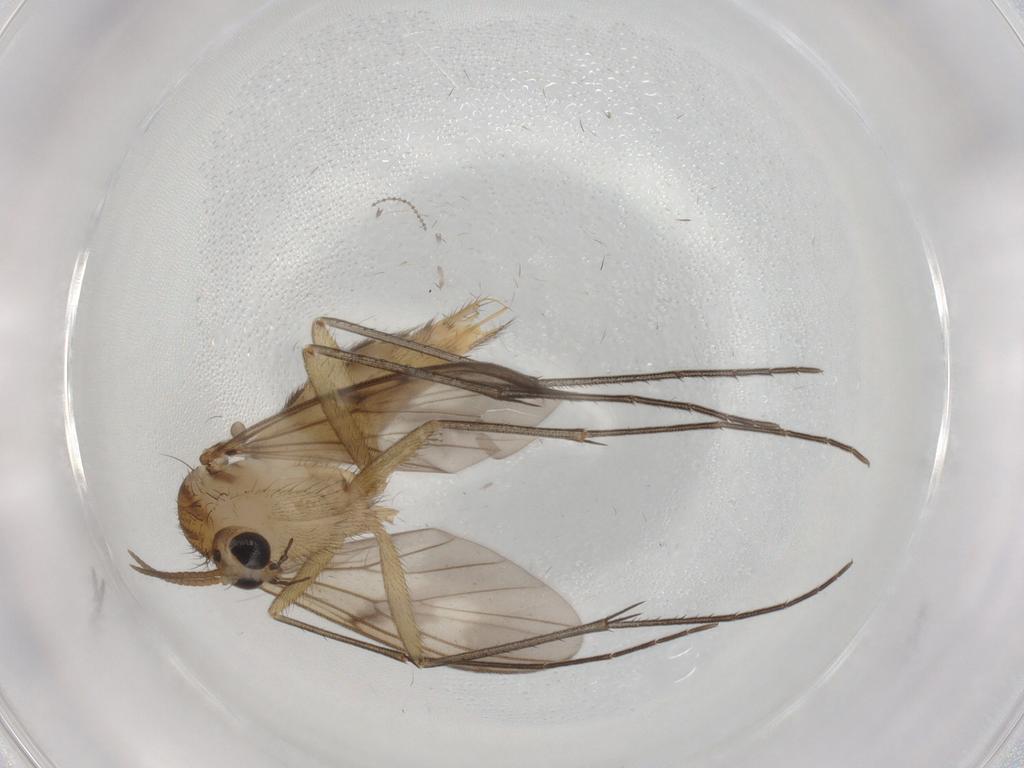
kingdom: Animalia
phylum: Arthropoda
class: Insecta
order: Diptera
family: Mycetophilidae
